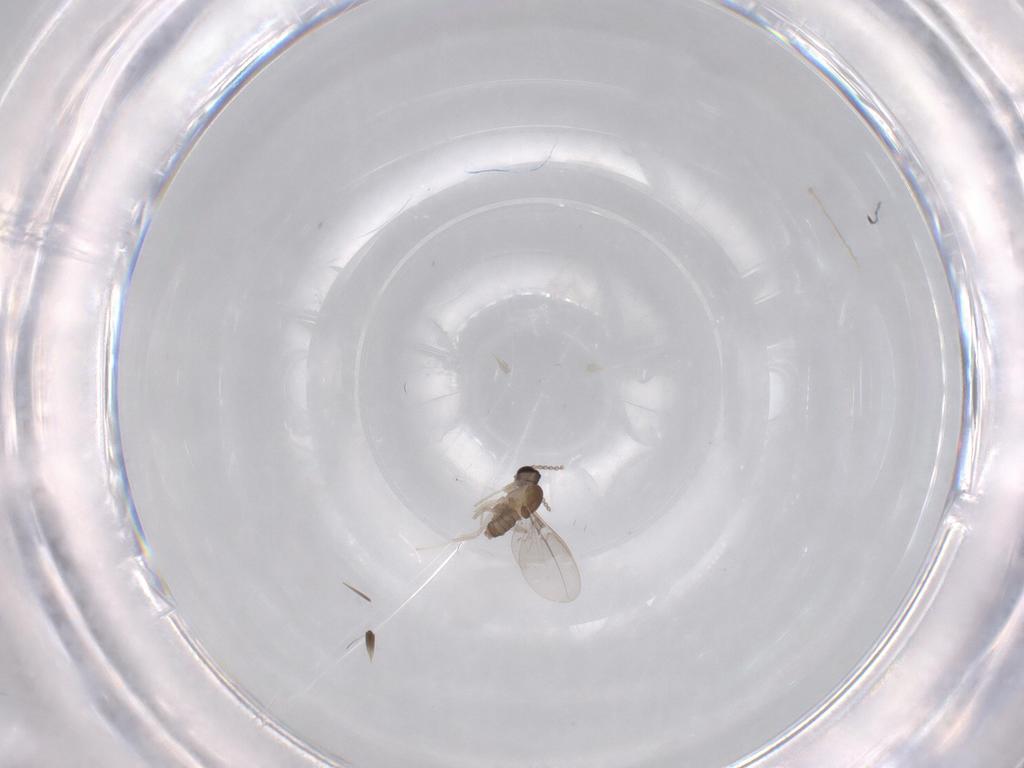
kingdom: Animalia
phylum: Arthropoda
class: Insecta
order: Diptera
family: Cecidomyiidae
